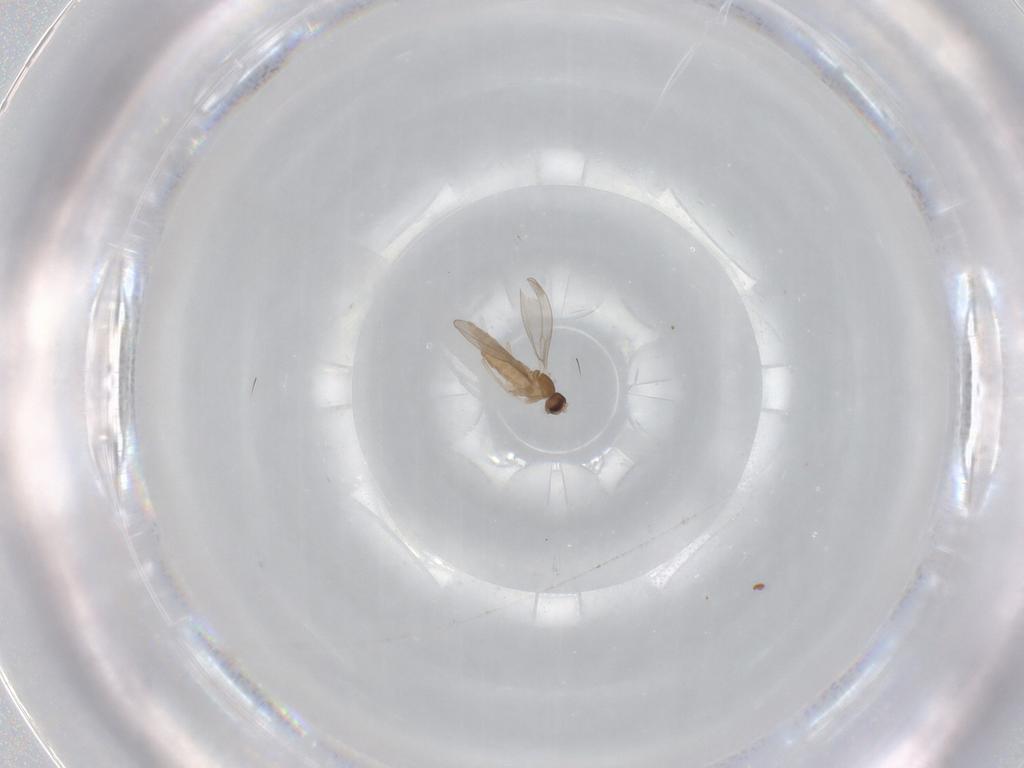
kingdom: Animalia
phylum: Arthropoda
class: Insecta
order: Diptera
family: Cecidomyiidae
